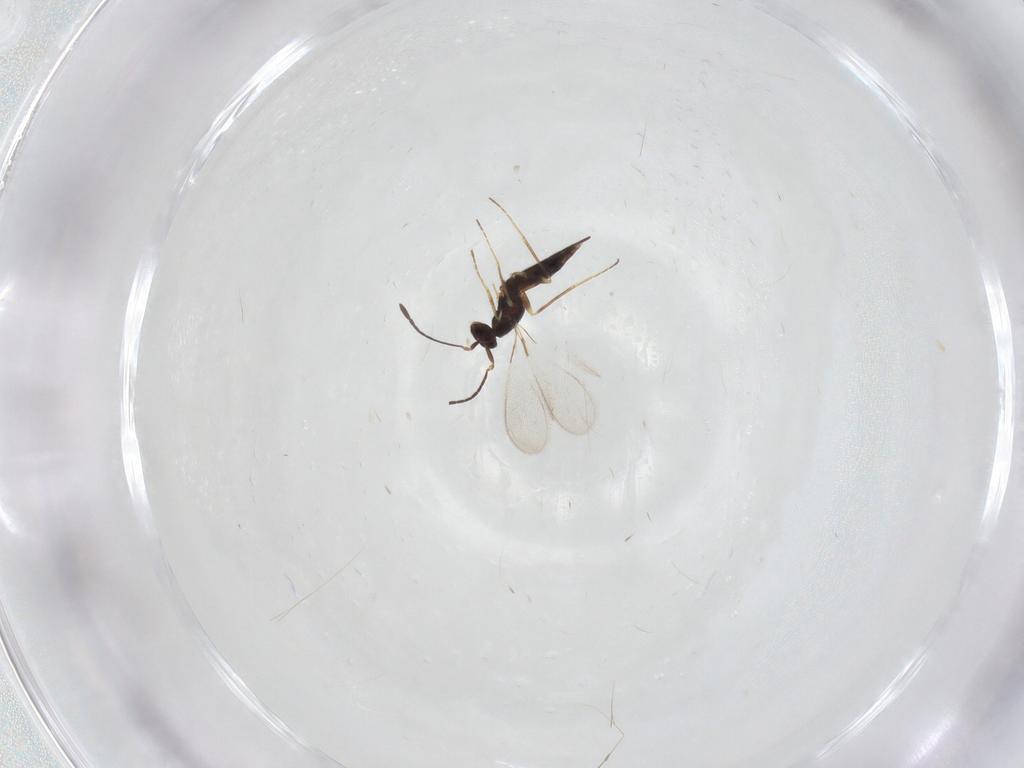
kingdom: Animalia
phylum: Arthropoda
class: Insecta
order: Hymenoptera
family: Mymaridae
